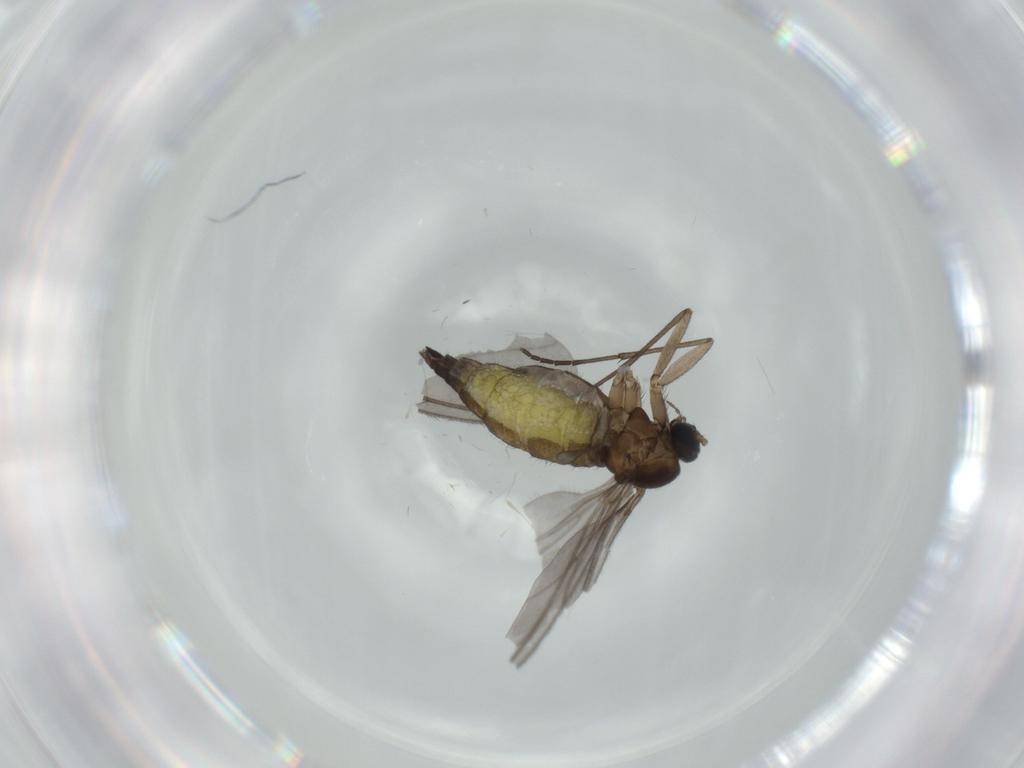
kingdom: Animalia
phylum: Arthropoda
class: Insecta
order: Diptera
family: Sciaridae
